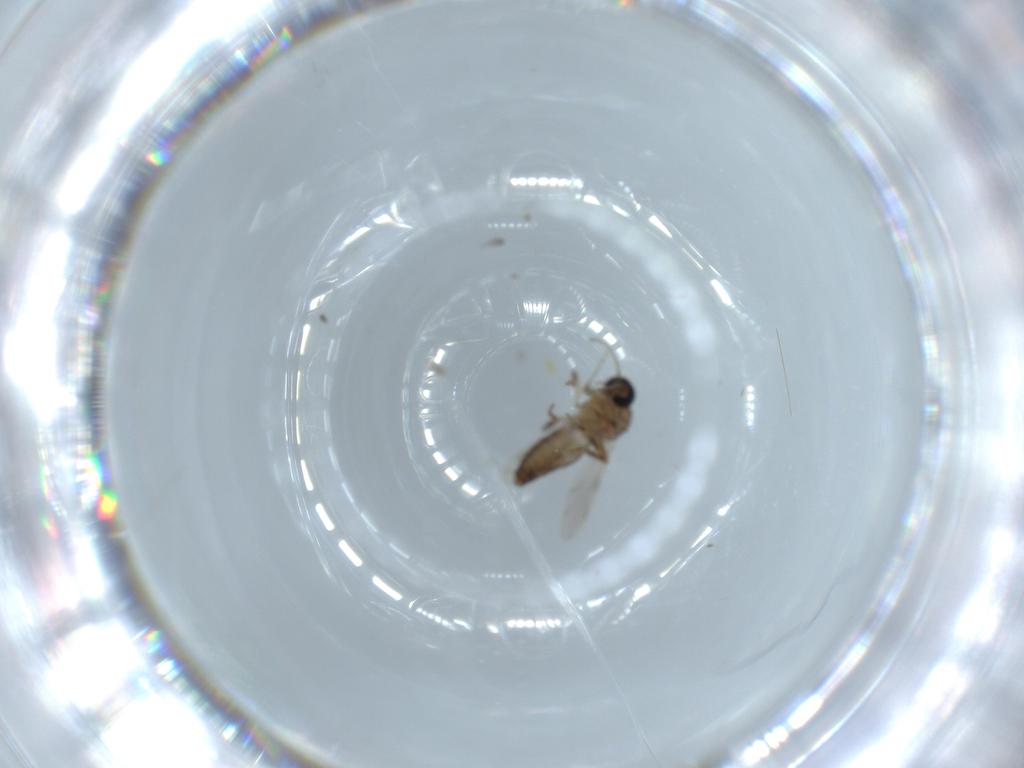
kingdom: Animalia
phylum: Arthropoda
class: Insecta
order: Diptera
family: Ceratopogonidae
